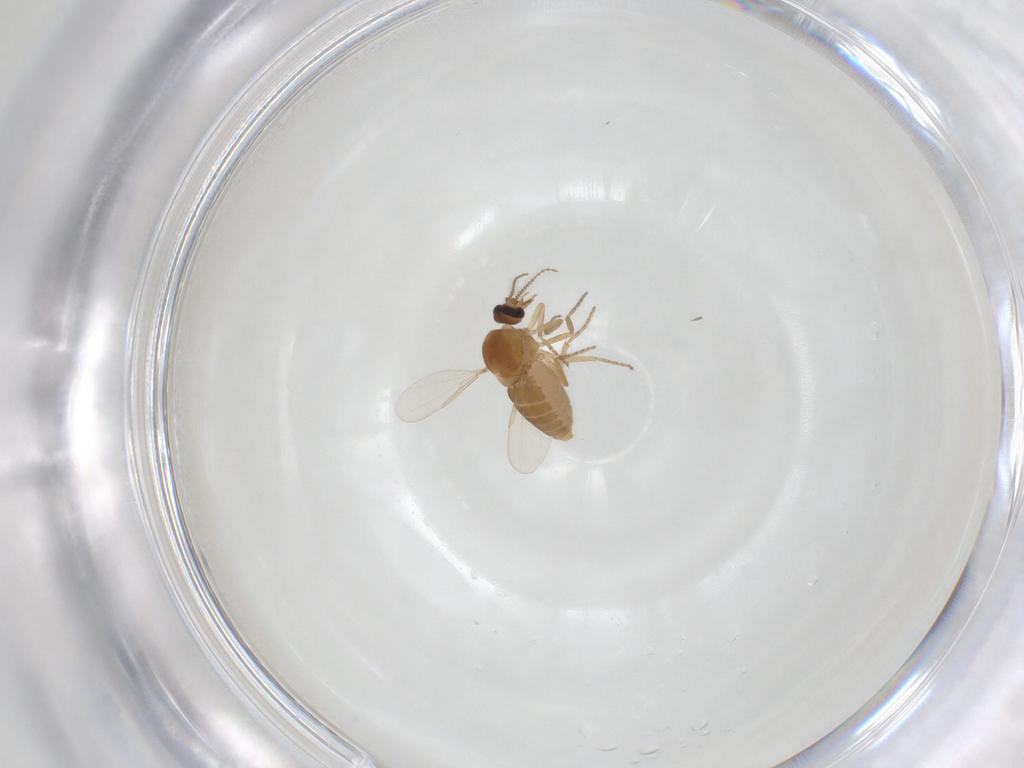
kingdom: Animalia
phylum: Arthropoda
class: Insecta
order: Diptera
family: Ceratopogonidae
